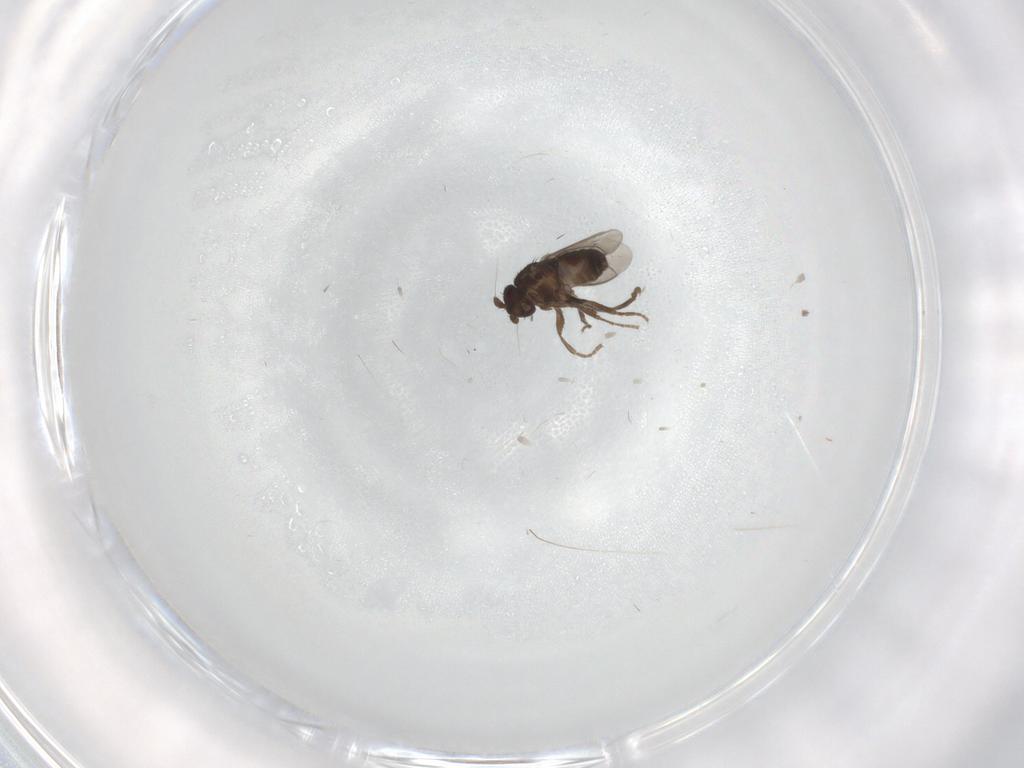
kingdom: Animalia
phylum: Arthropoda
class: Insecta
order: Diptera
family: Sphaeroceridae
